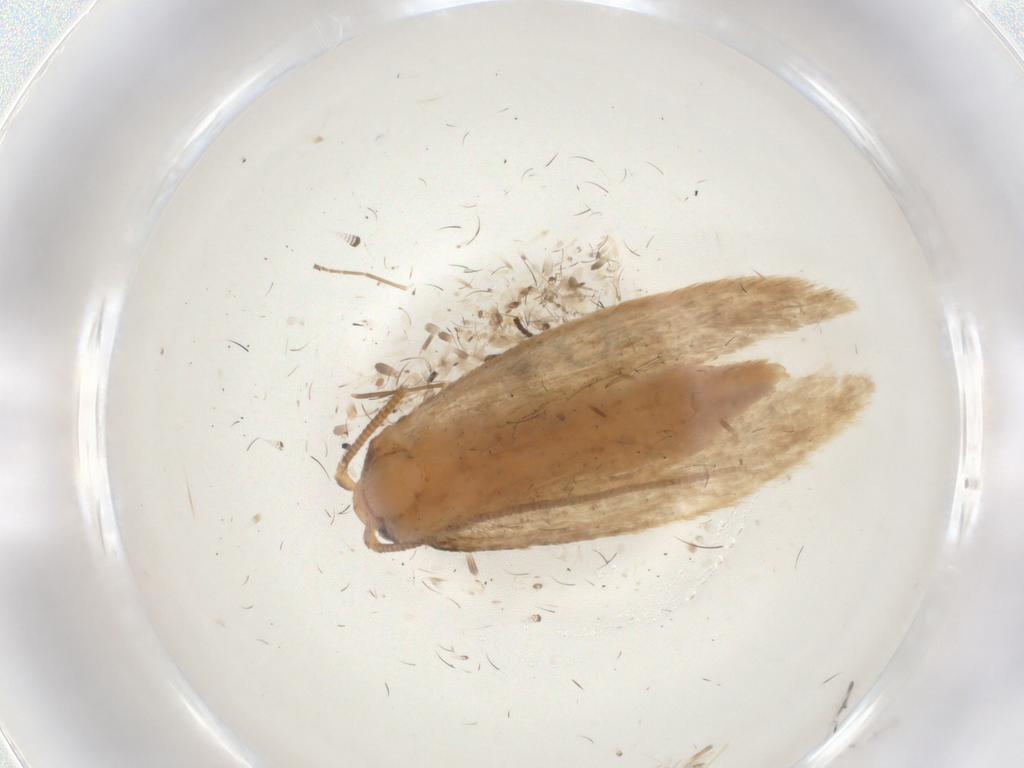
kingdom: Animalia
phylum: Arthropoda
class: Insecta
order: Lepidoptera
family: Tineidae
